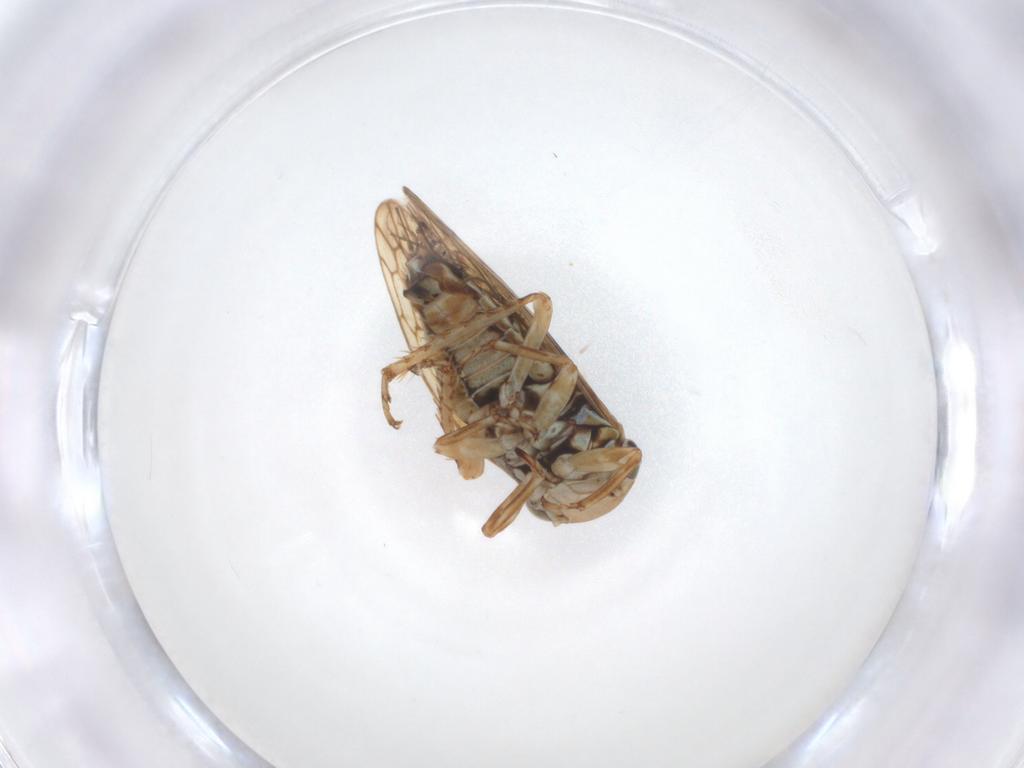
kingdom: Animalia
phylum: Arthropoda
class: Insecta
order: Hemiptera
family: Cicadellidae
